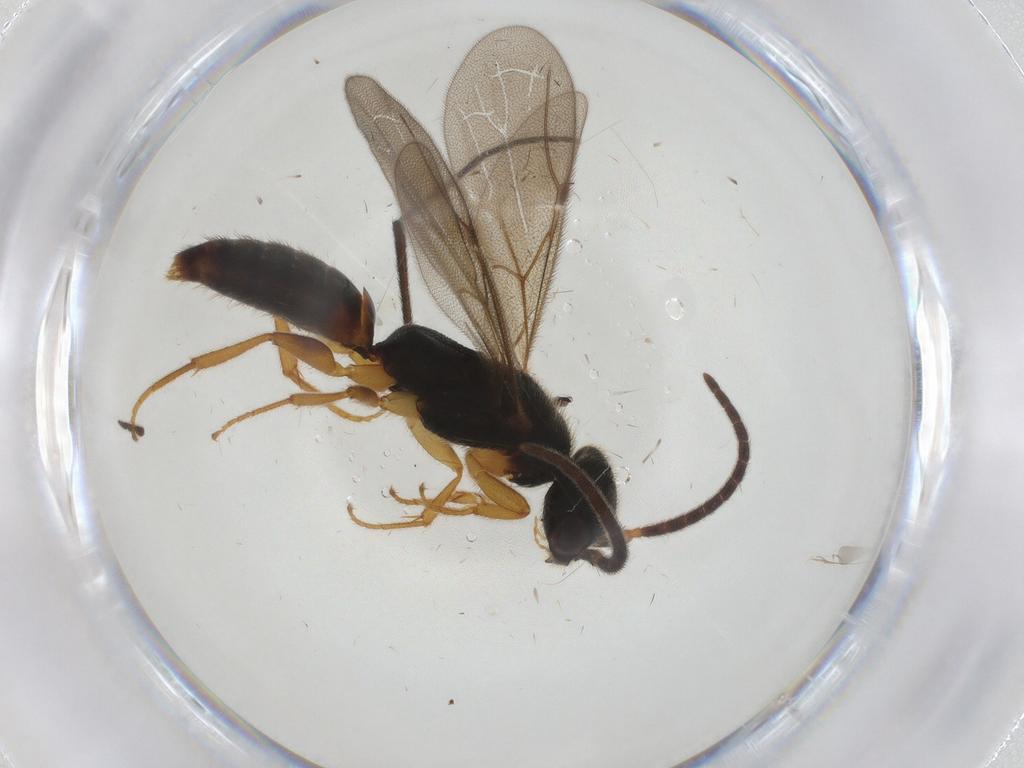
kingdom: Animalia
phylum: Arthropoda
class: Insecta
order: Hymenoptera
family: Bethylidae
